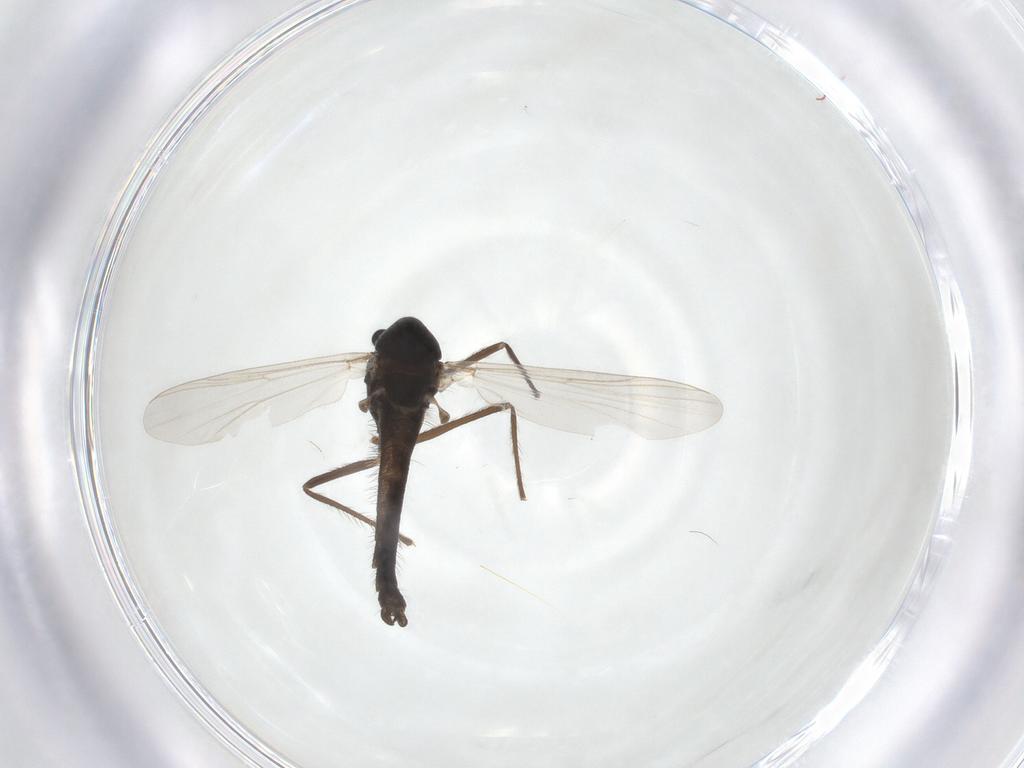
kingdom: Animalia
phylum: Arthropoda
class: Insecta
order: Diptera
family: Chironomidae
